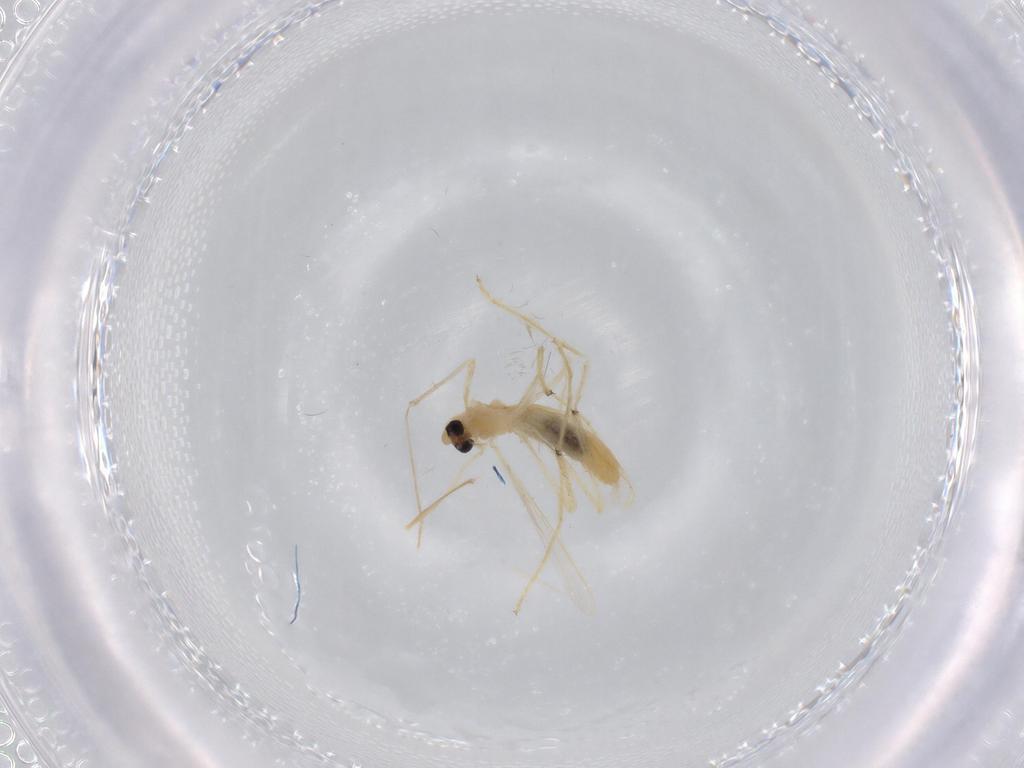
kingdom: Animalia
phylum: Arthropoda
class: Insecta
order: Diptera
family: Chironomidae
